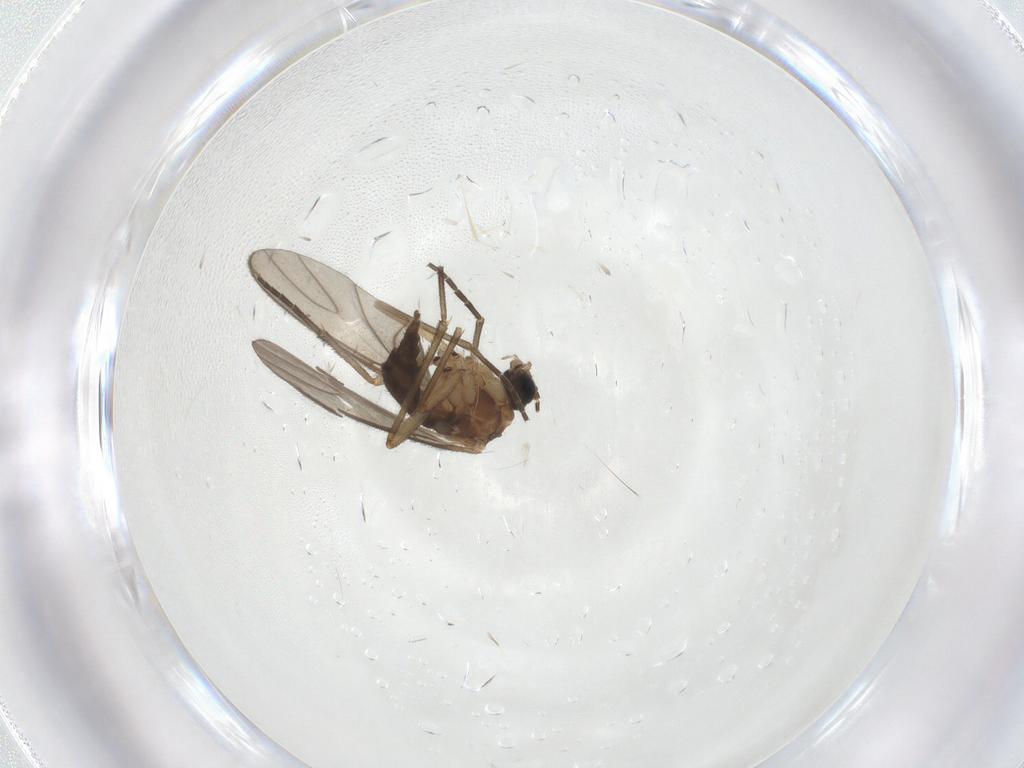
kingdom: Animalia
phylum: Arthropoda
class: Insecta
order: Diptera
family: Sciaridae
